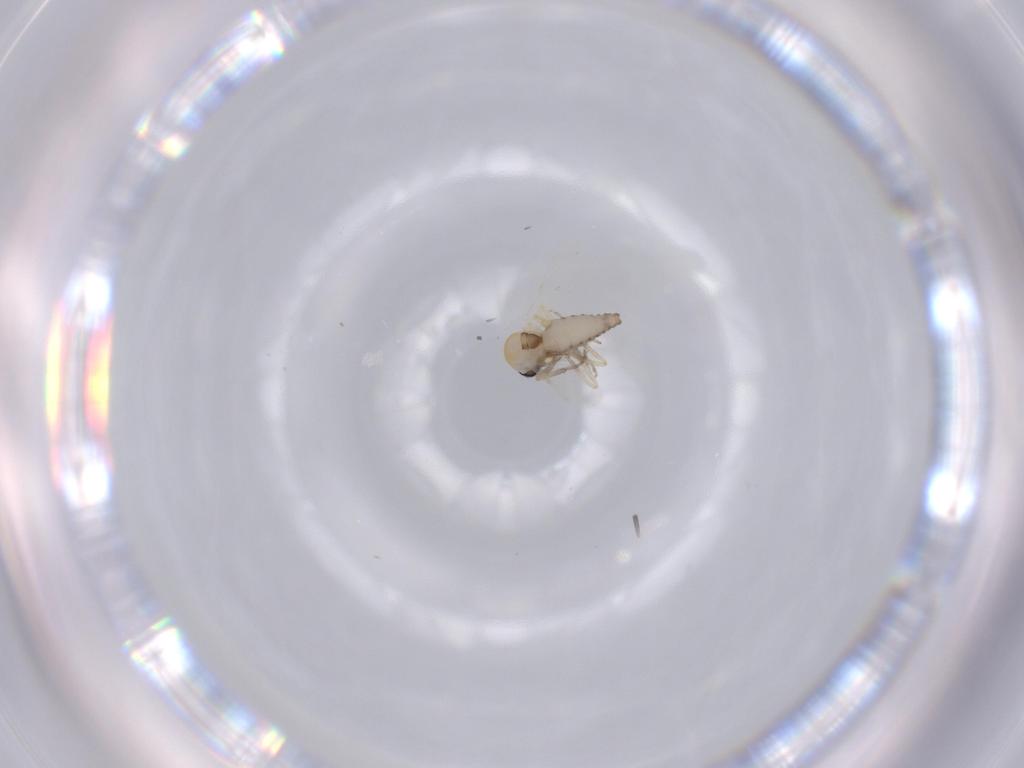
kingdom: Animalia
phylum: Arthropoda
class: Insecta
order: Diptera
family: Ceratopogonidae
